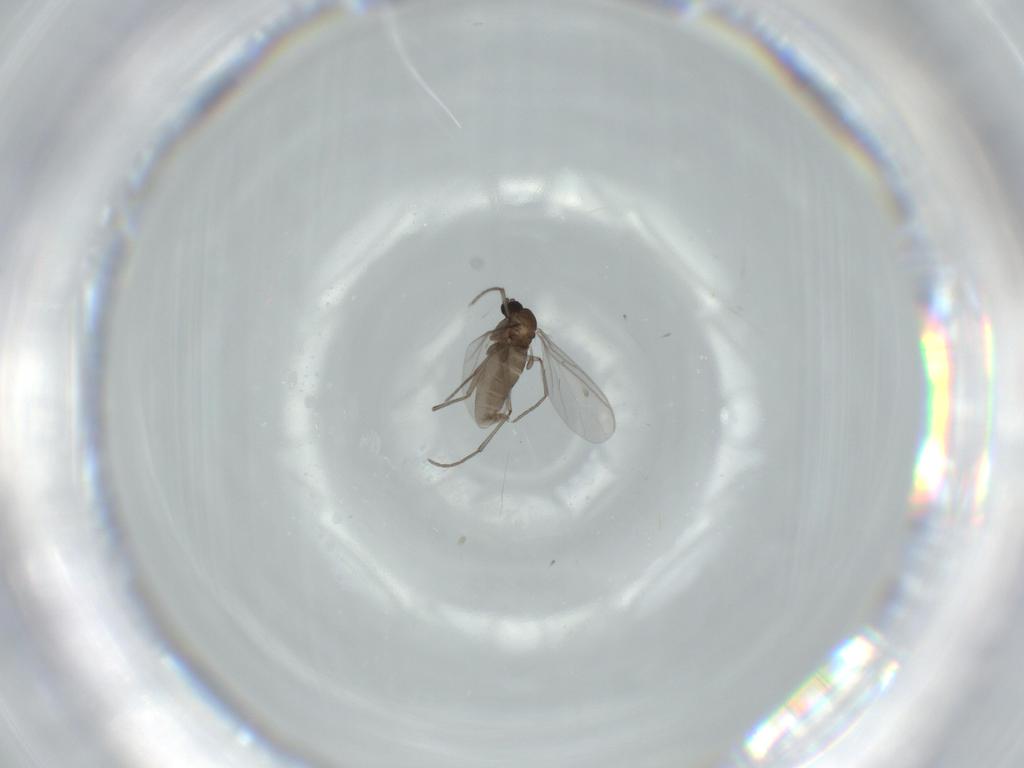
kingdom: Animalia
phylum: Arthropoda
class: Insecta
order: Diptera
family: Sciaridae
